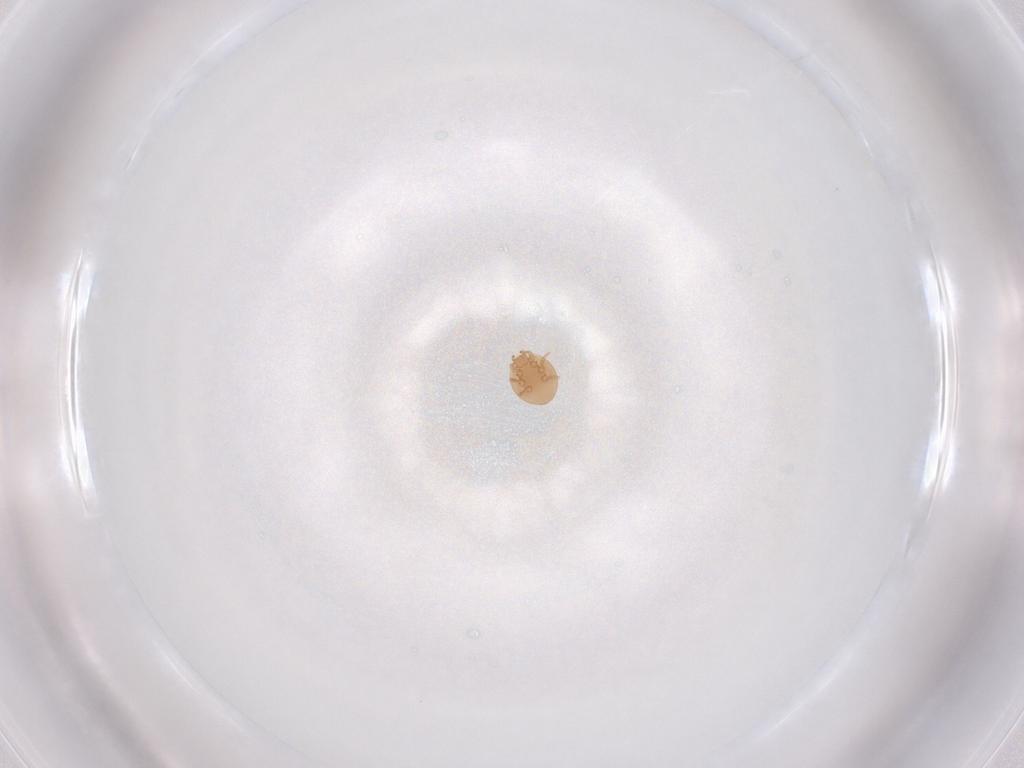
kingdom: Animalia
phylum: Arthropoda
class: Arachnida
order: Mesostigmata
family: Trematuridae
